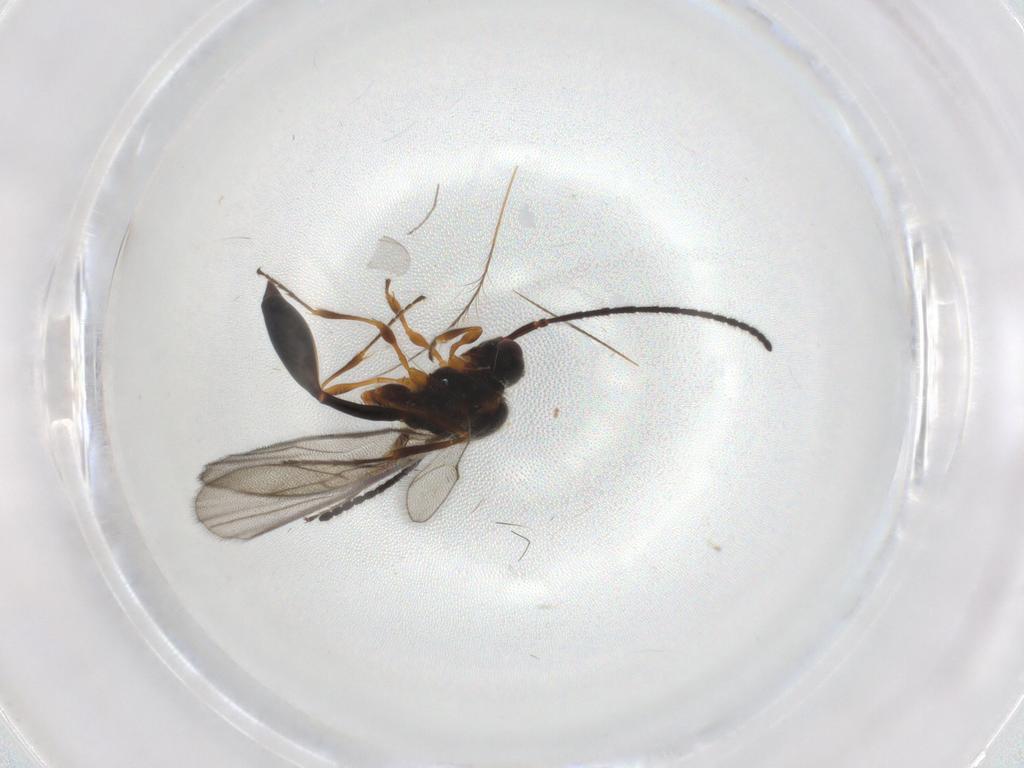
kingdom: Animalia
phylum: Arthropoda
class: Insecta
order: Hymenoptera
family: Diapriidae
